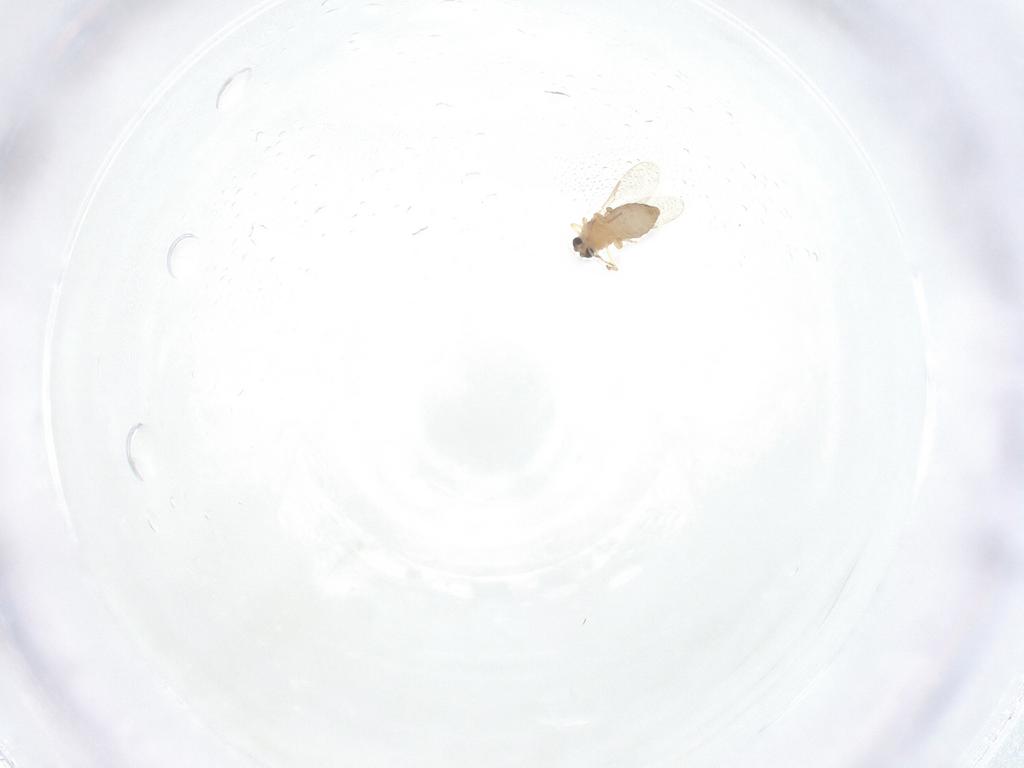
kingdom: Animalia
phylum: Arthropoda
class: Insecta
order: Diptera
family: Ceratopogonidae
